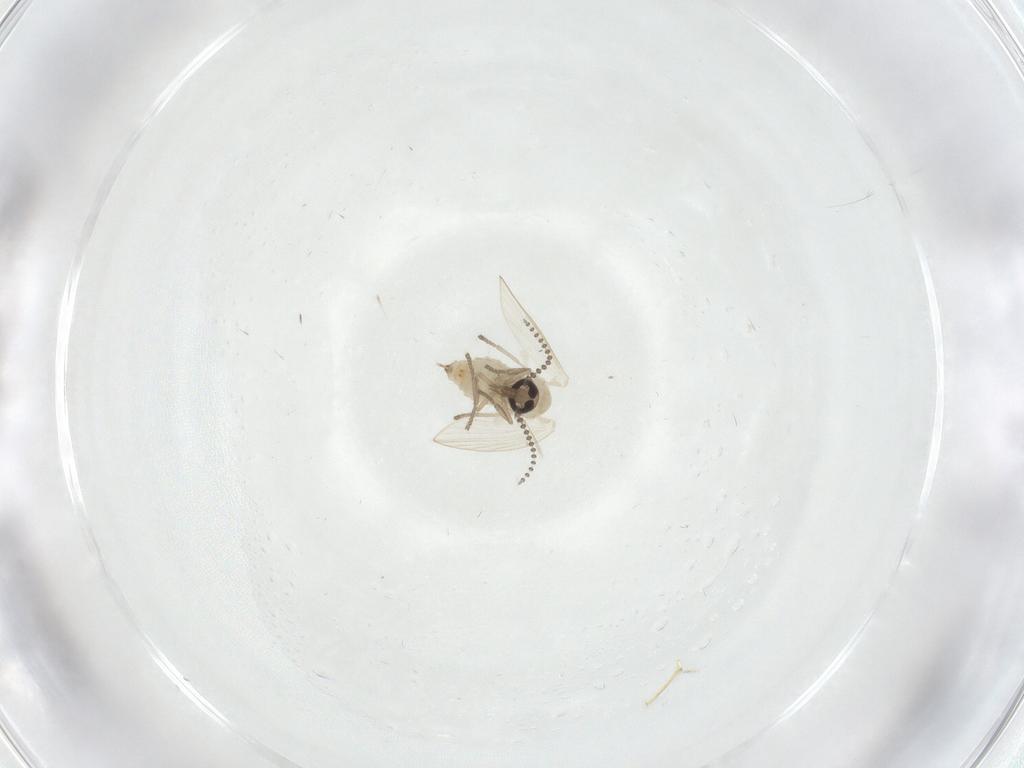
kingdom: Animalia
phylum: Arthropoda
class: Insecta
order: Diptera
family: Psychodidae
